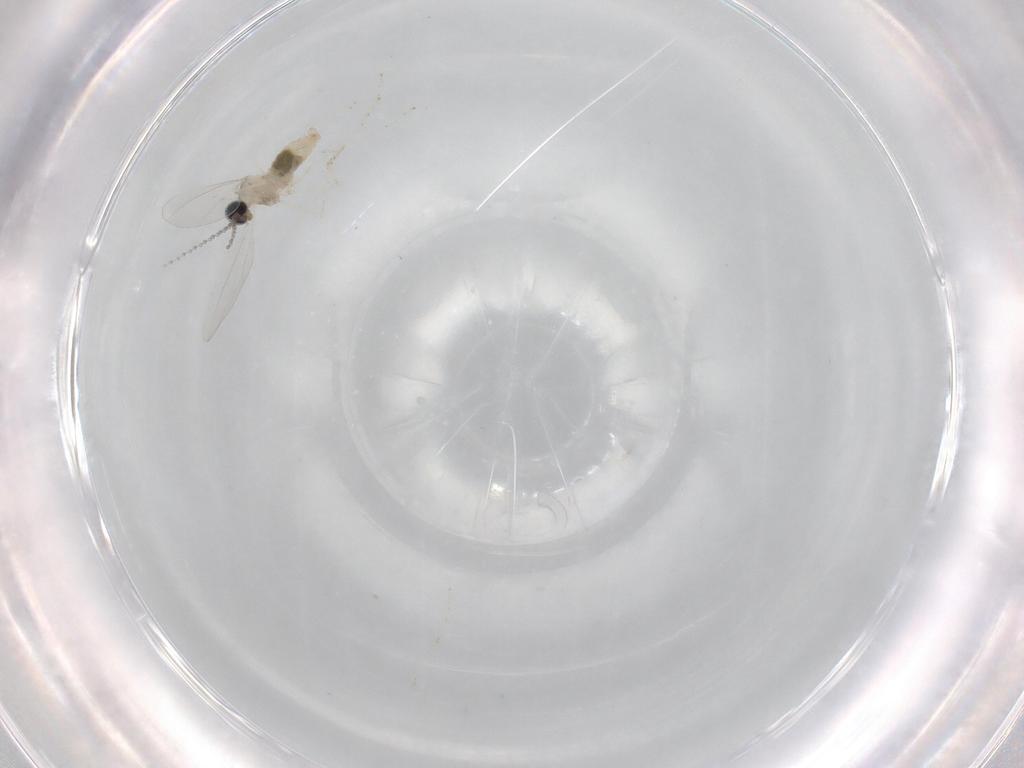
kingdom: Animalia
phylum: Arthropoda
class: Insecta
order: Diptera
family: Cecidomyiidae
